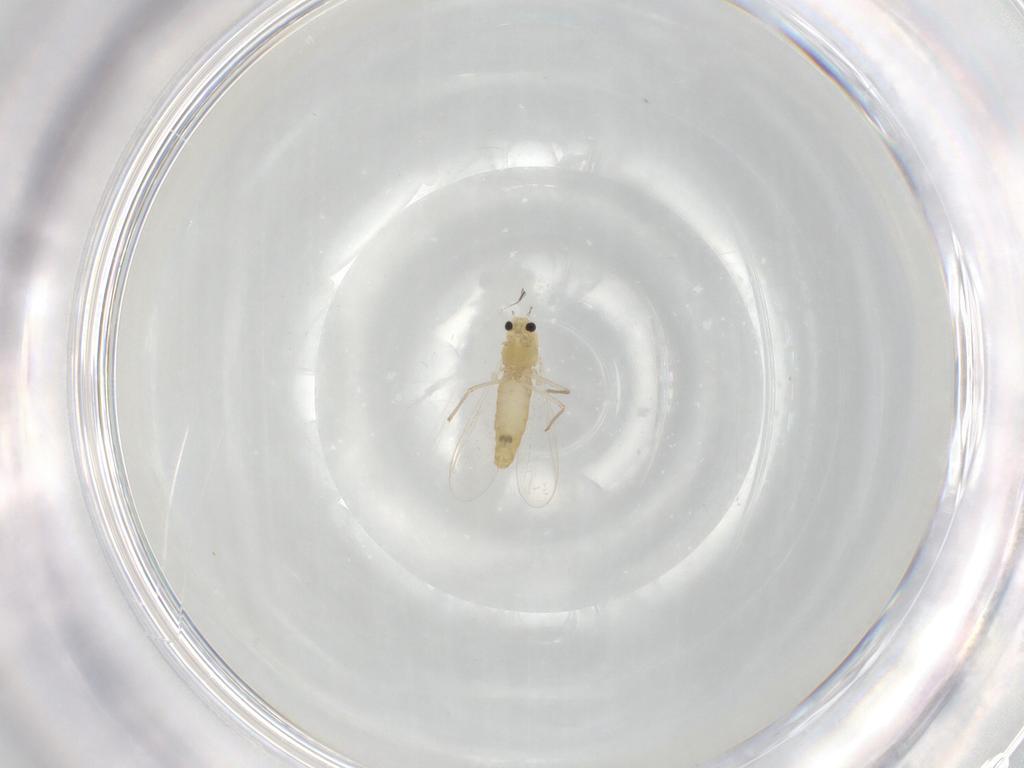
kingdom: Animalia
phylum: Arthropoda
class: Insecta
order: Diptera
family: Chironomidae
